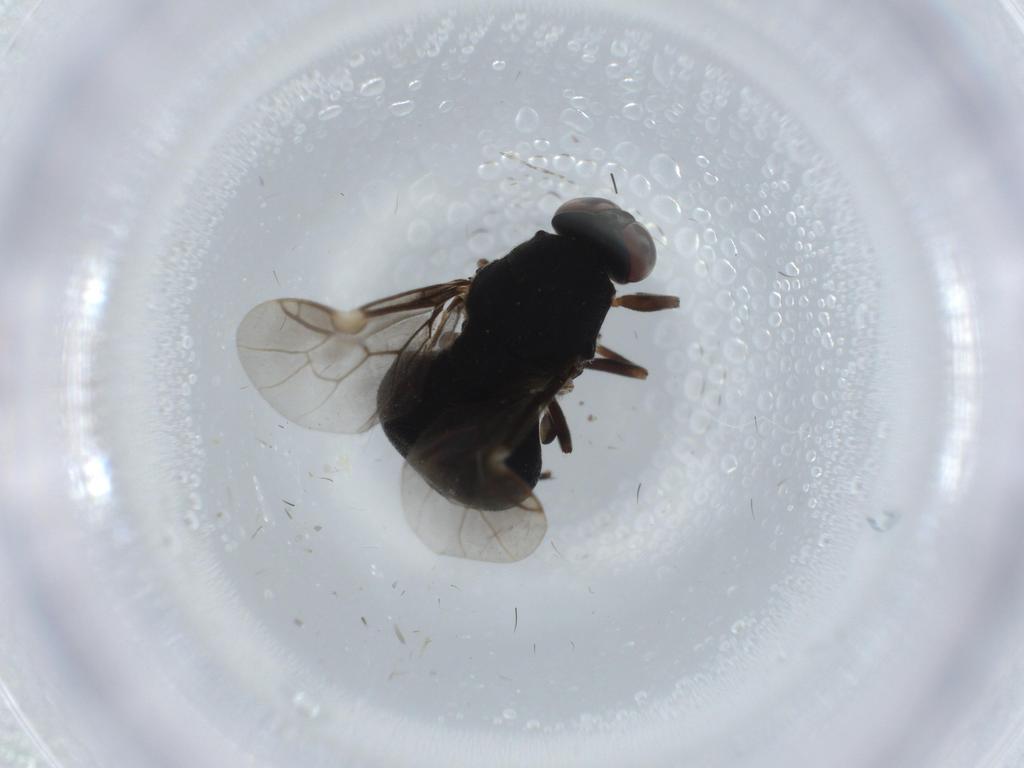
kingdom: Animalia
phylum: Arthropoda
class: Insecta
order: Diptera
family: Stratiomyidae
